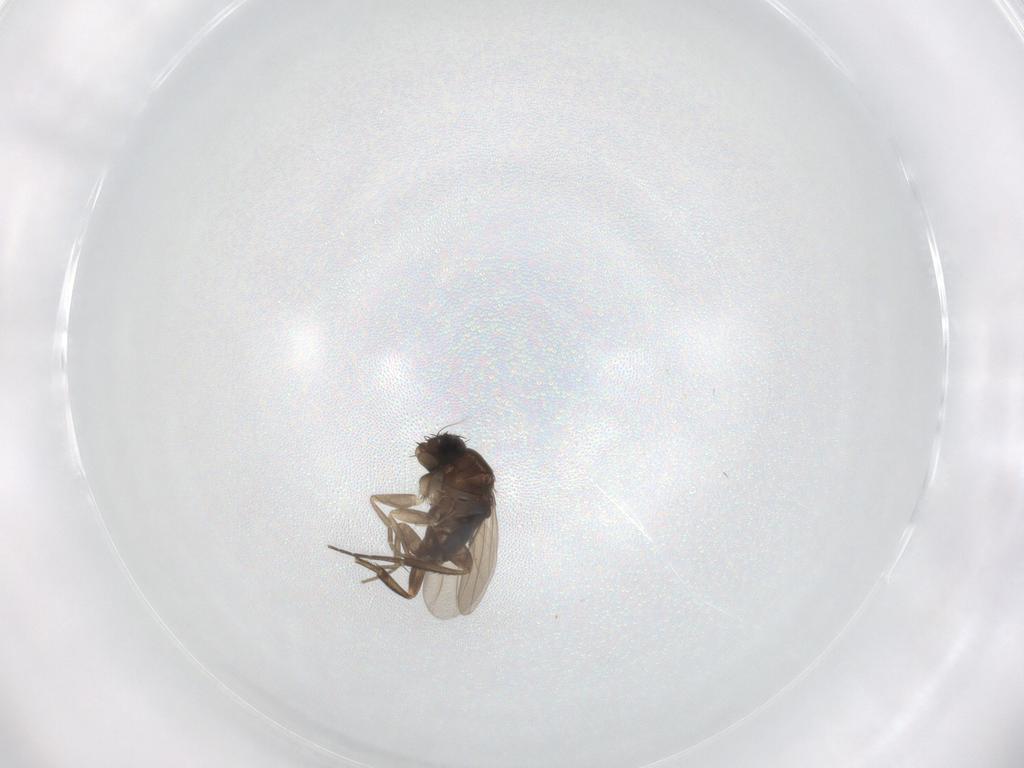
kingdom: Animalia
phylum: Arthropoda
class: Insecta
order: Diptera
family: Phoridae
